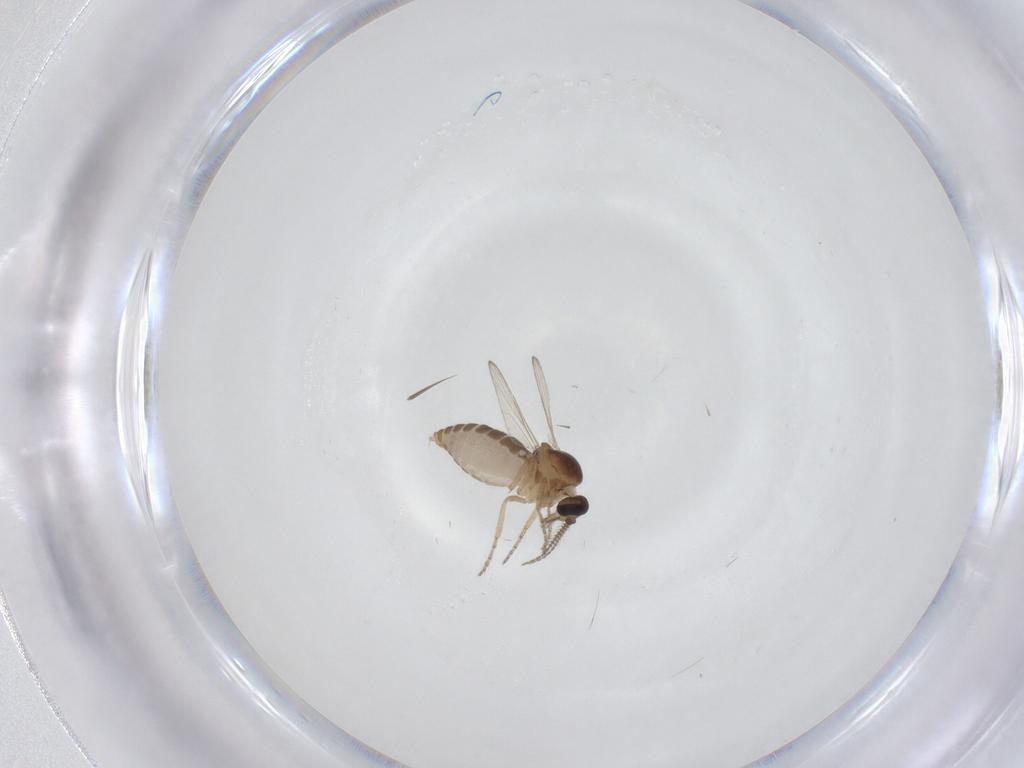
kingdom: Animalia
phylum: Arthropoda
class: Insecta
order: Diptera
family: Ceratopogonidae
